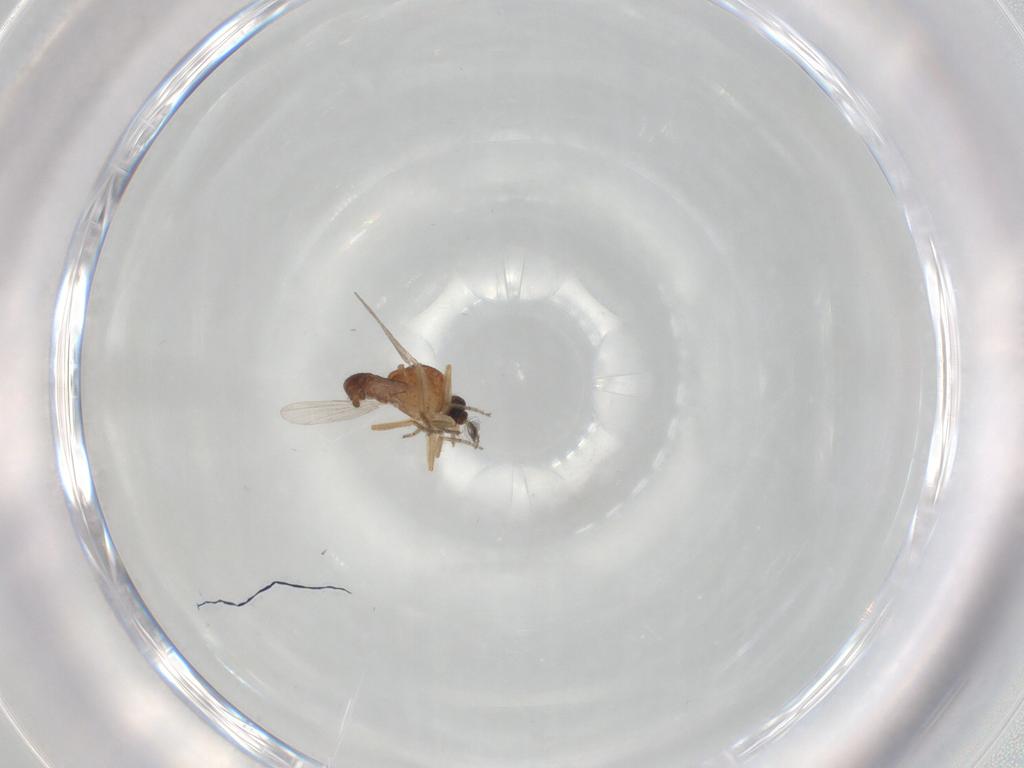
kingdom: Animalia
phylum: Arthropoda
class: Insecta
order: Diptera
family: Ceratopogonidae
